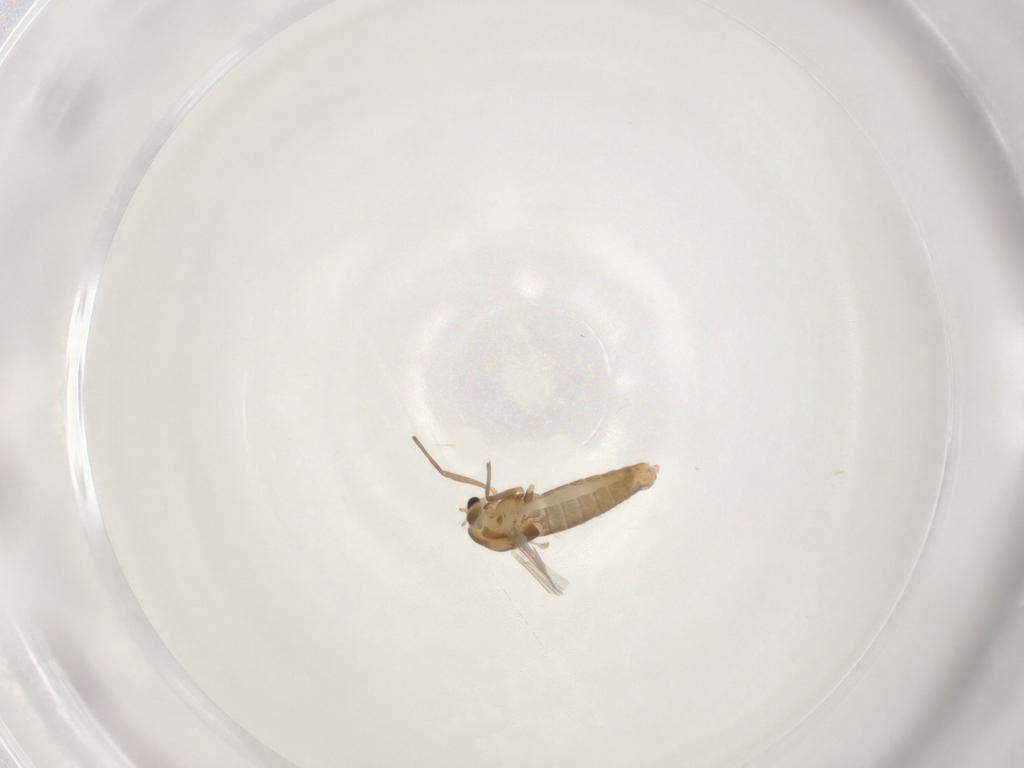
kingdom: Animalia
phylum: Arthropoda
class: Insecta
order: Diptera
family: Chironomidae
